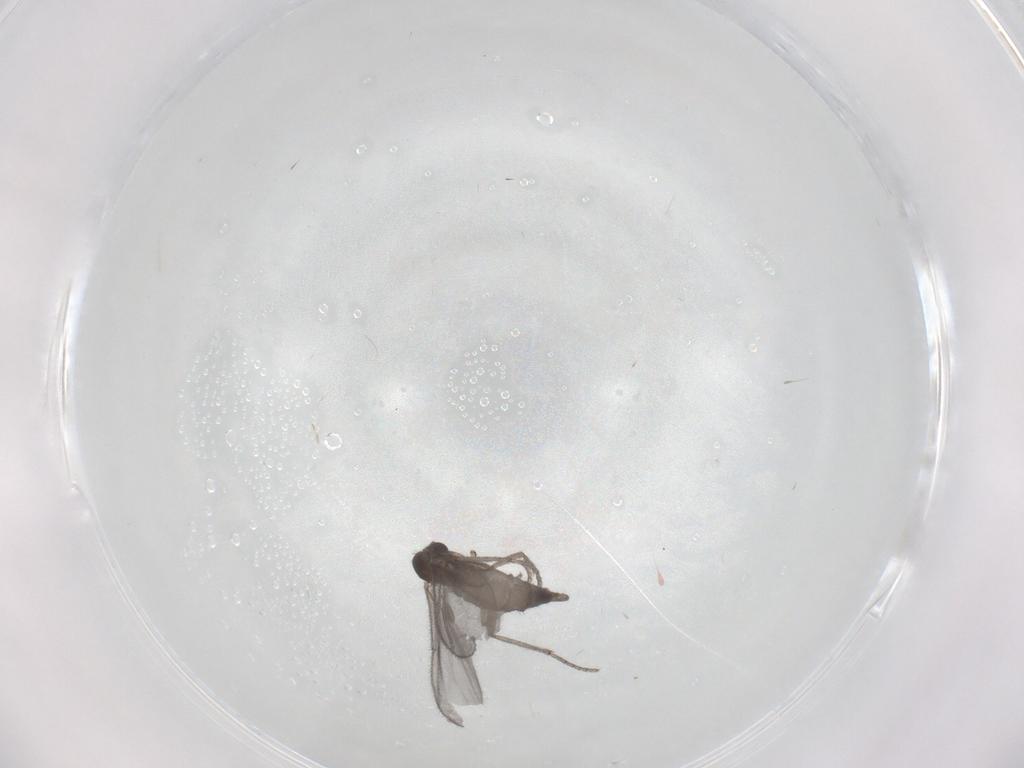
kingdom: Animalia
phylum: Arthropoda
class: Insecta
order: Diptera
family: Sciaridae
